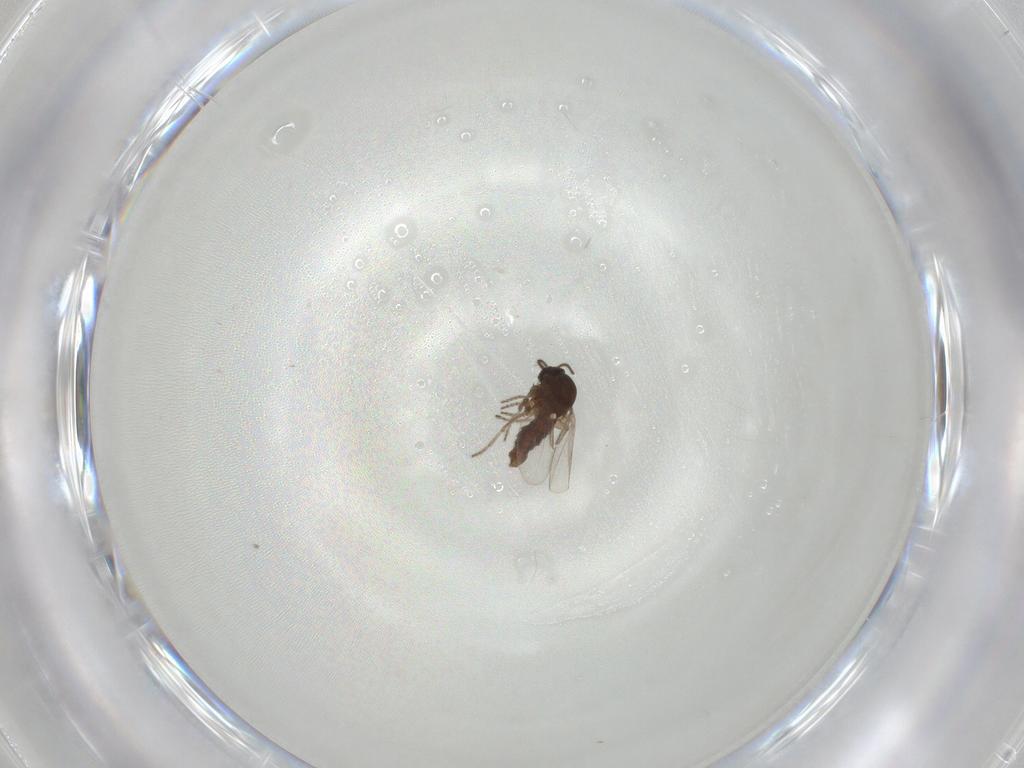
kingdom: Animalia
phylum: Arthropoda
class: Insecta
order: Diptera
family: Ceratopogonidae
